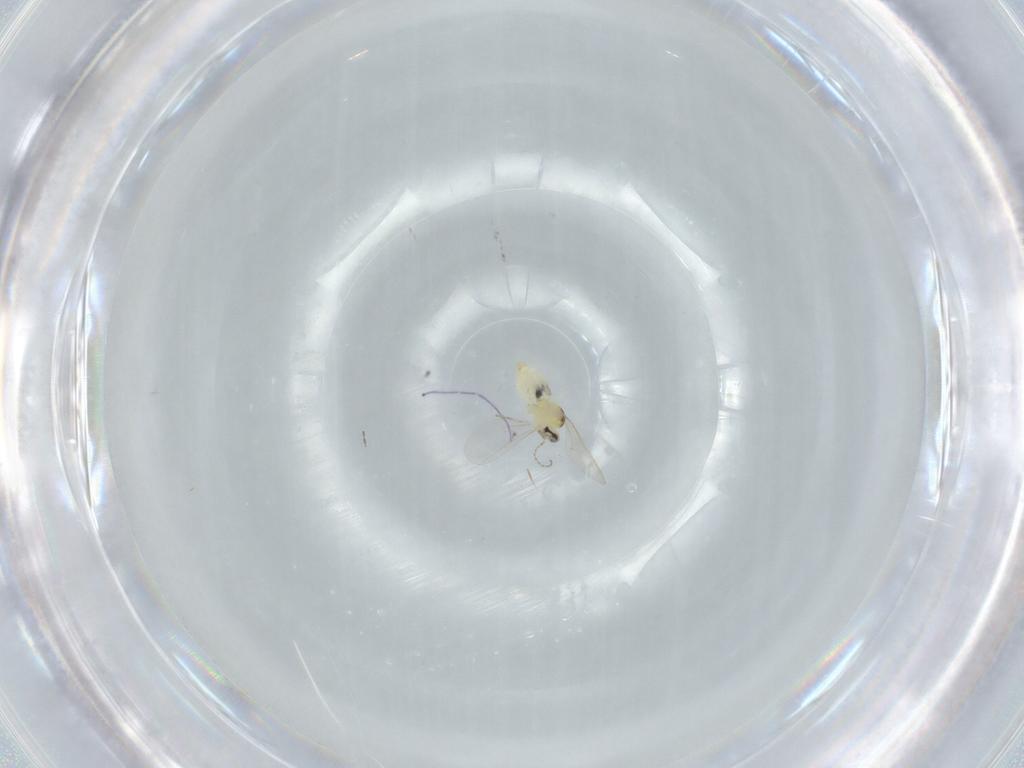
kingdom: Animalia
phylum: Arthropoda
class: Insecta
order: Diptera
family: Cecidomyiidae
